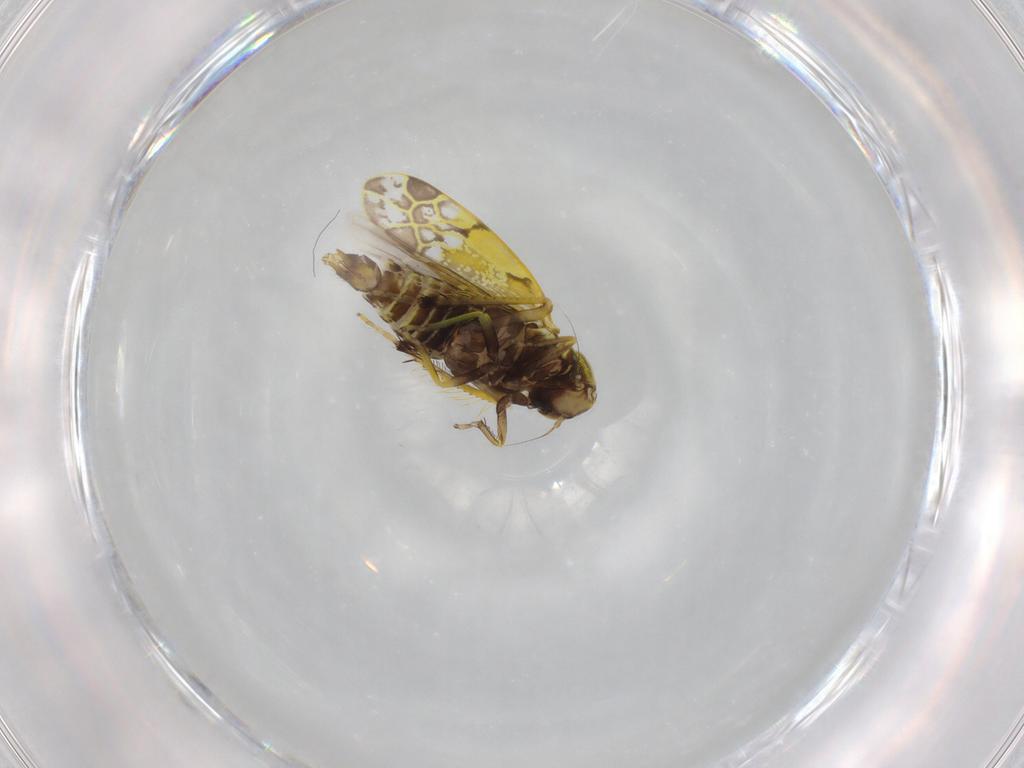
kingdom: Animalia
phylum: Arthropoda
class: Insecta
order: Hemiptera
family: Cicadellidae
